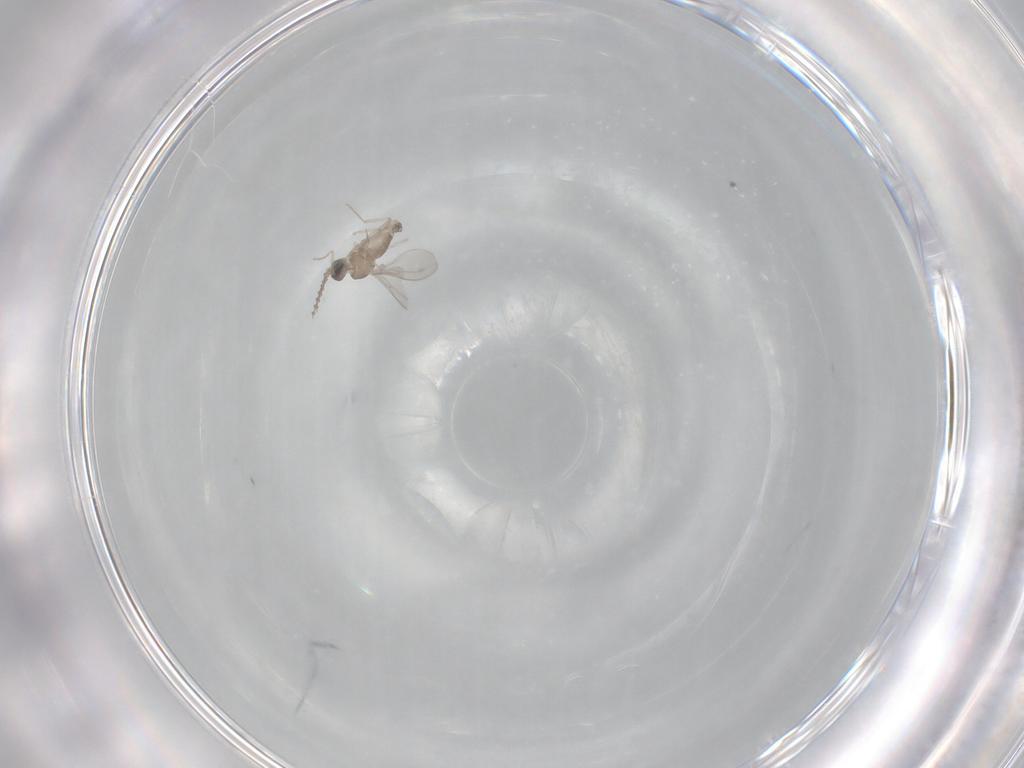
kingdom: Animalia
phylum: Arthropoda
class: Insecta
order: Diptera
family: Cecidomyiidae
